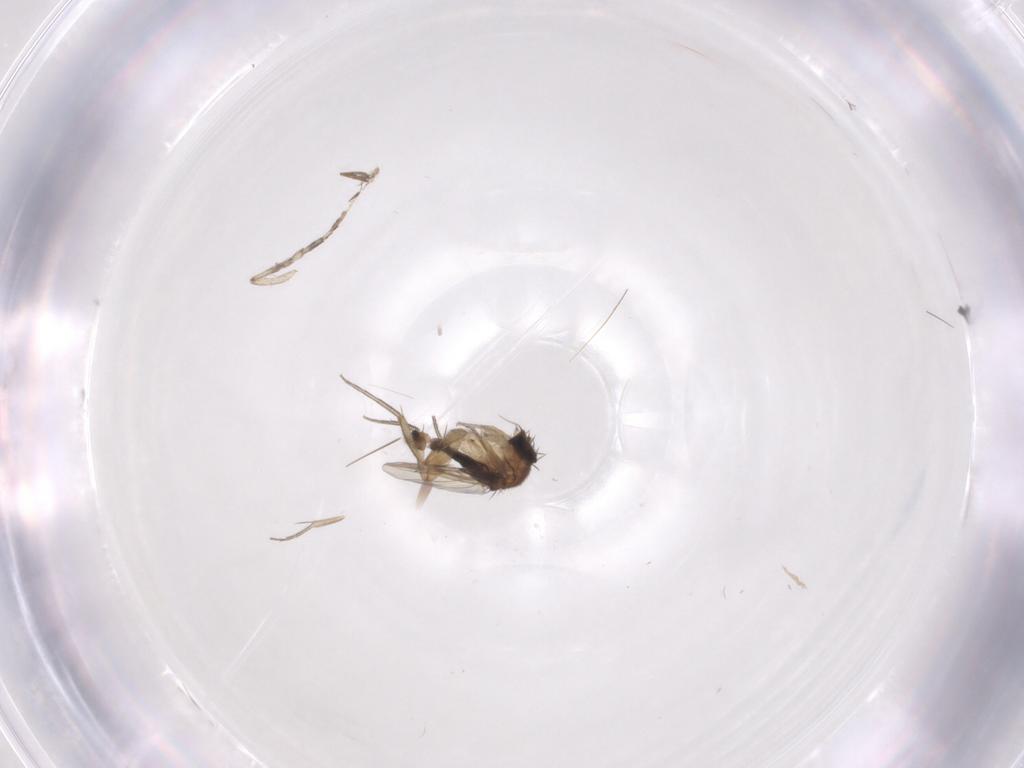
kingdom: Animalia
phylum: Arthropoda
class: Insecta
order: Diptera
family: Phoridae
